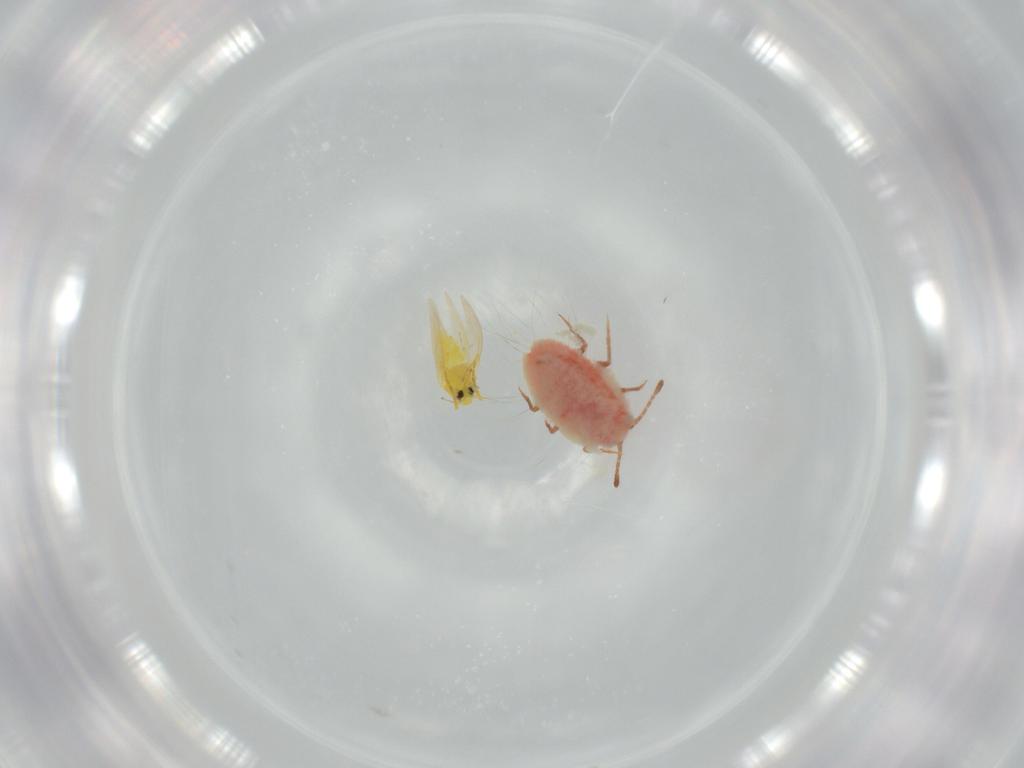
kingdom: Animalia
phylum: Arthropoda
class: Insecta
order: Hemiptera
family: Aleyrodidae
